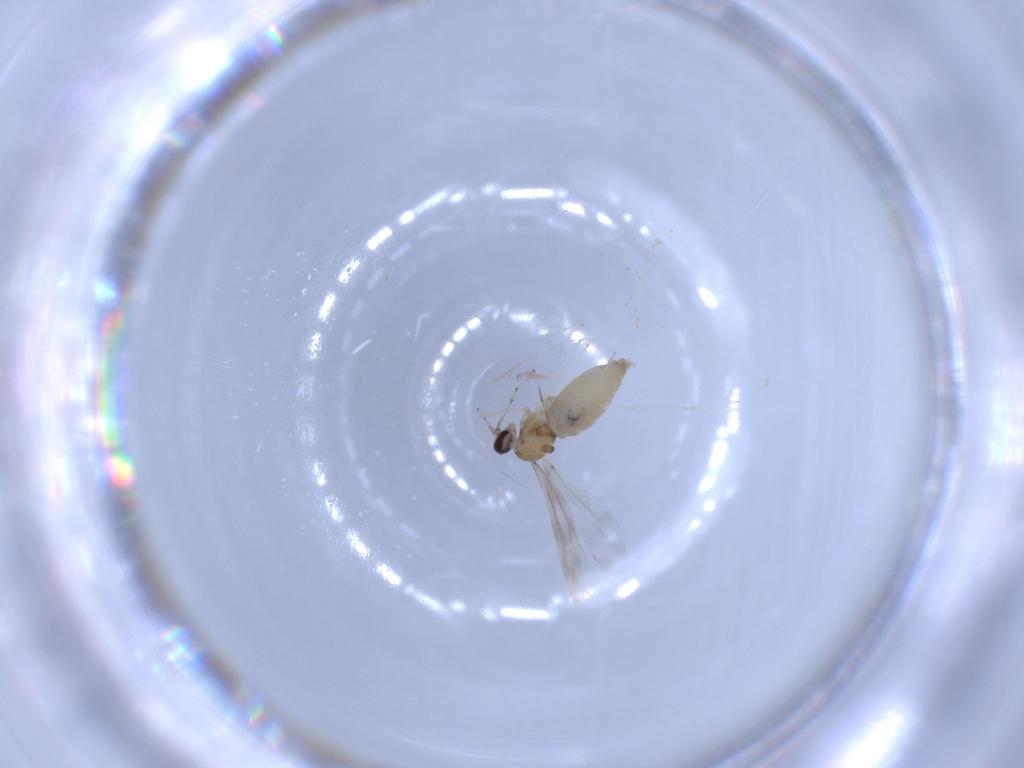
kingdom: Animalia
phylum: Arthropoda
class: Insecta
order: Diptera
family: Cecidomyiidae
